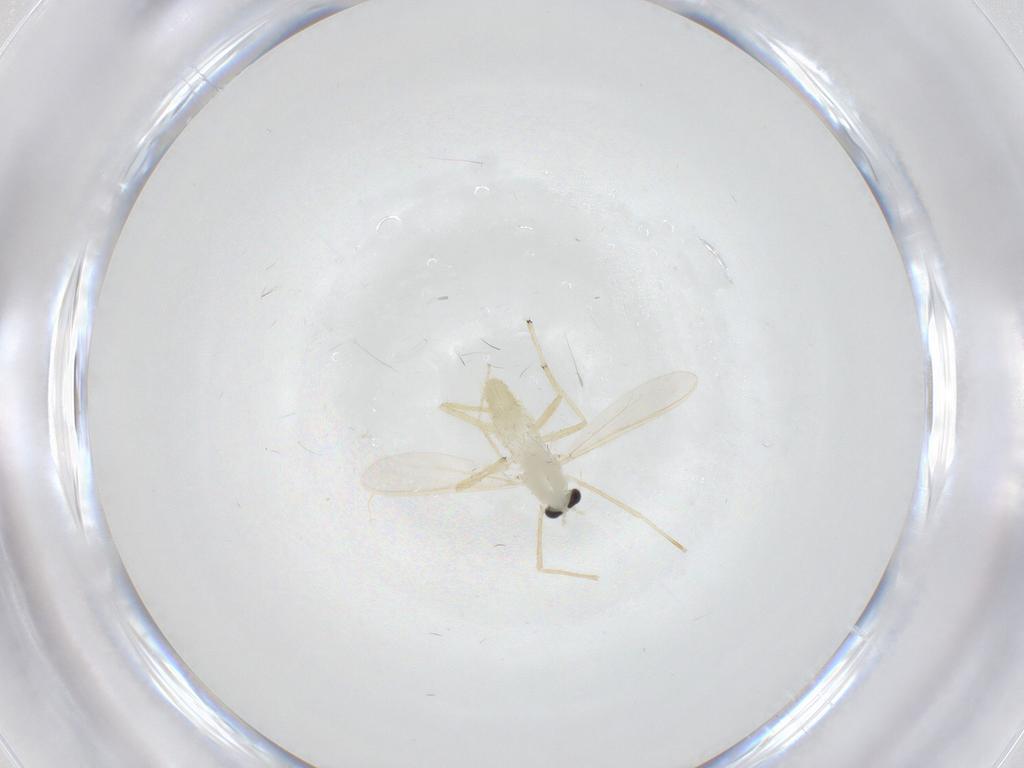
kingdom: Animalia
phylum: Arthropoda
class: Insecta
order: Diptera
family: Chironomidae
